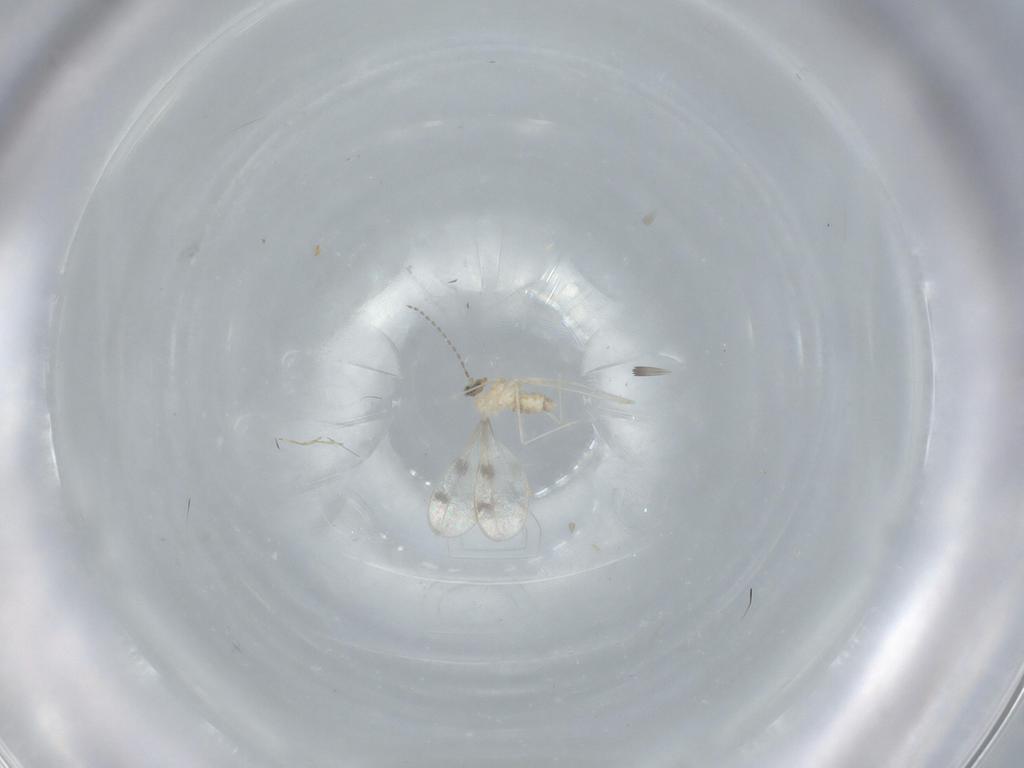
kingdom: Animalia
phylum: Arthropoda
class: Insecta
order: Diptera
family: Cecidomyiidae
